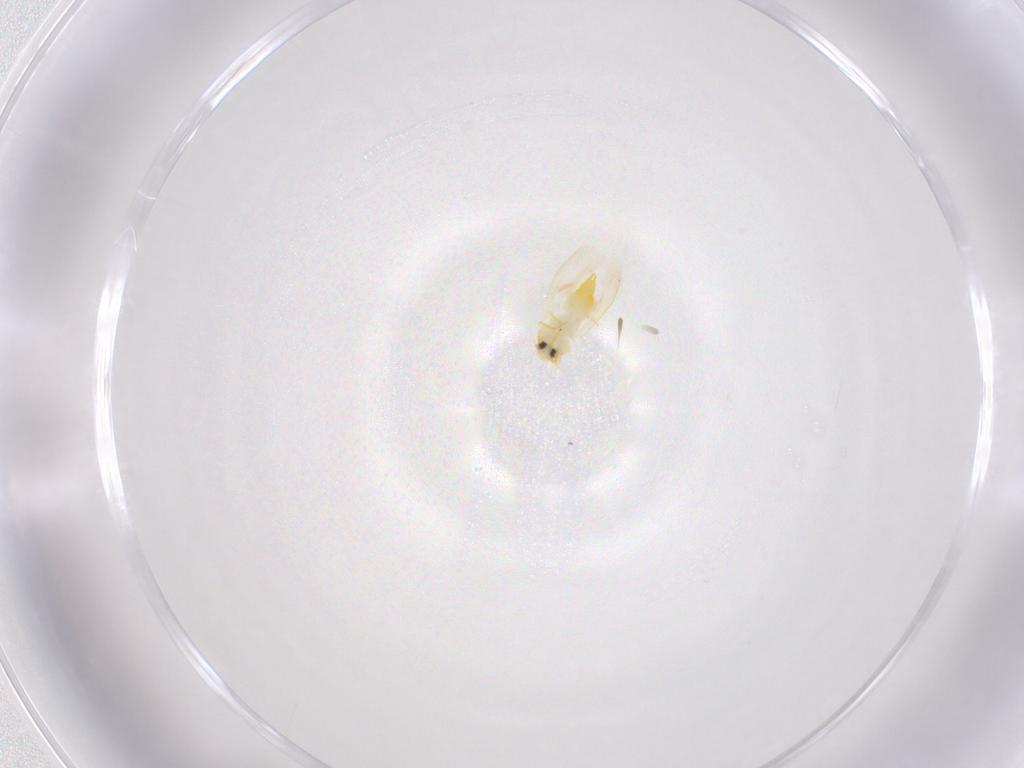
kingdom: Animalia
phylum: Arthropoda
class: Insecta
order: Hemiptera
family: Aleyrodidae
